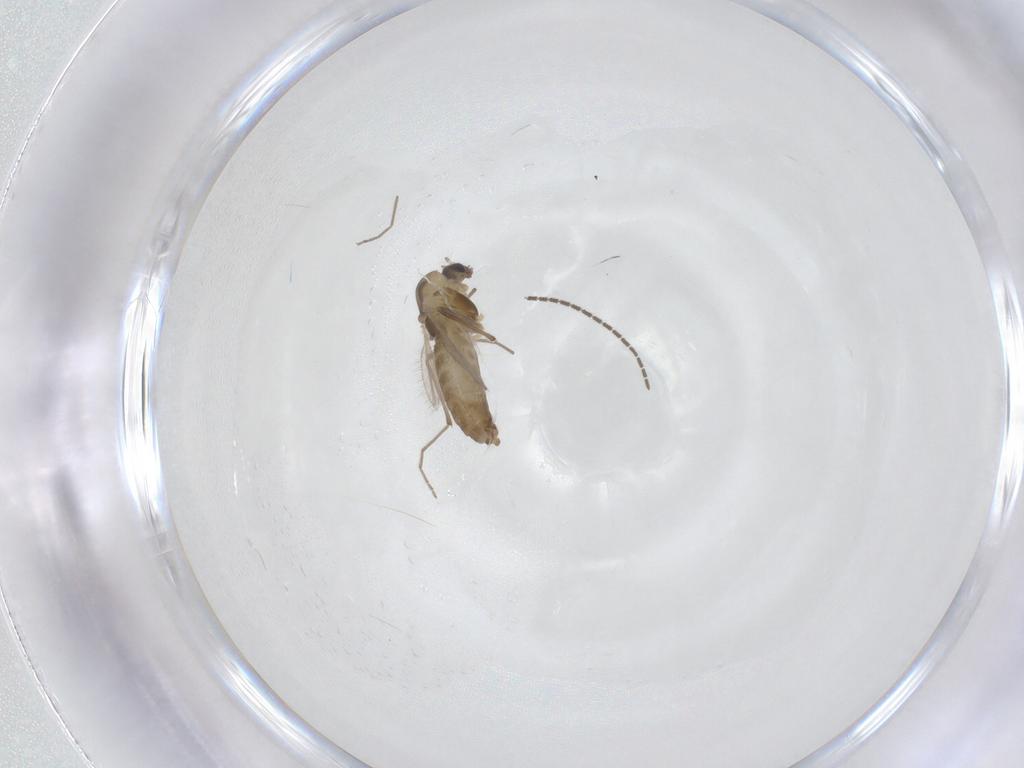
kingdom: Animalia
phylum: Arthropoda
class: Insecta
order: Diptera
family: Chironomidae
